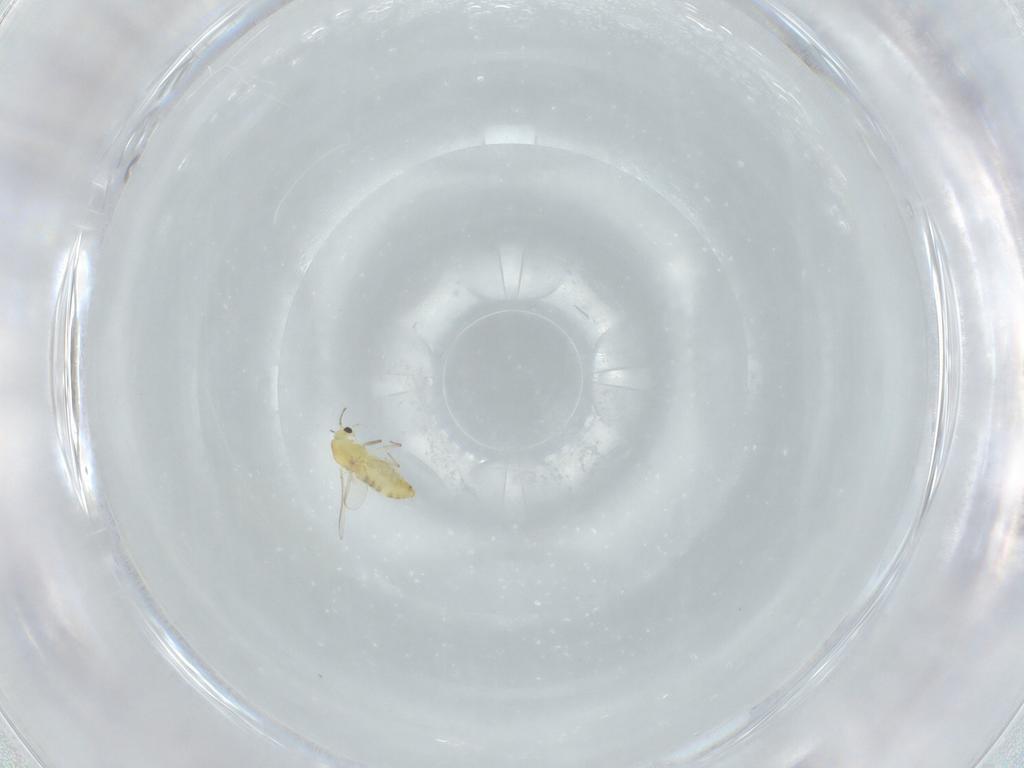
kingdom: Animalia
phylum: Arthropoda
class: Insecta
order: Diptera
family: Chironomidae
